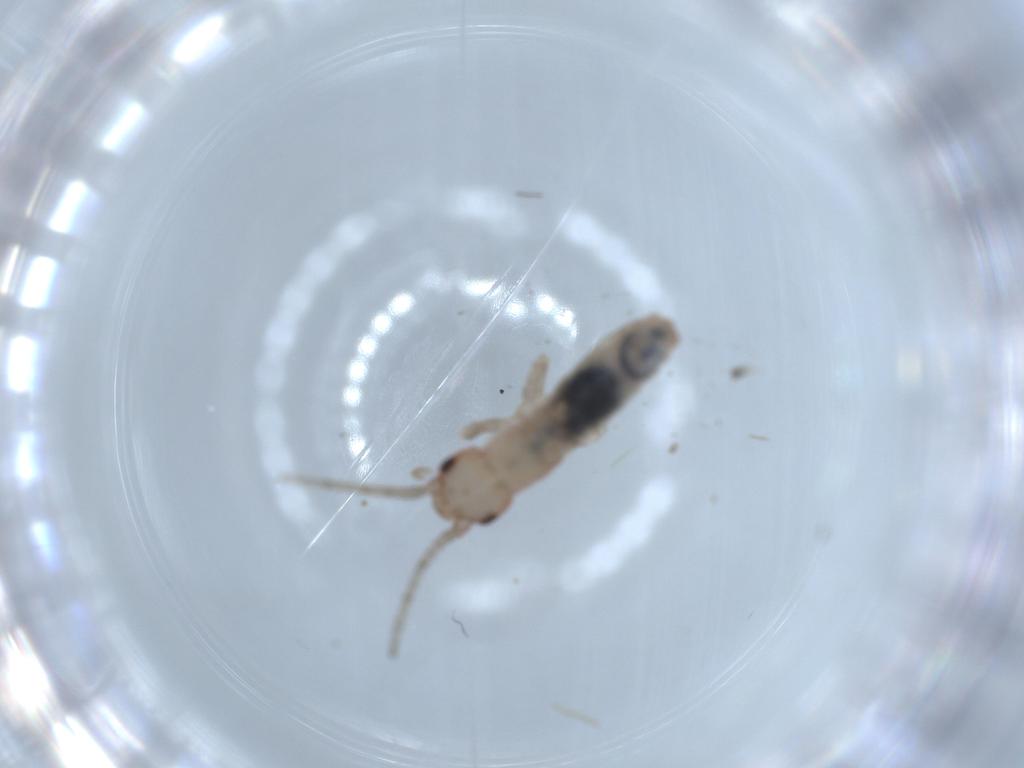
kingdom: Animalia
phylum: Arthropoda
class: Insecta
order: Orthoptera
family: Mogoplistidae
